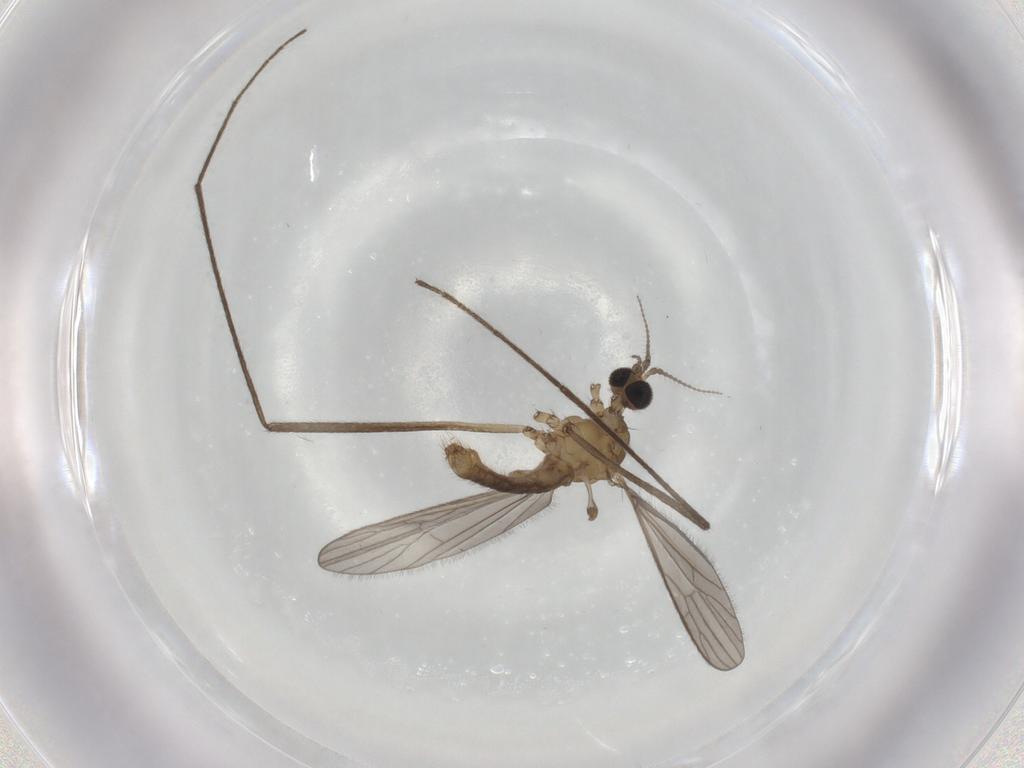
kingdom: Animalia
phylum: Arthropoda
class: Insecta
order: Diptera
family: Limoniidae
